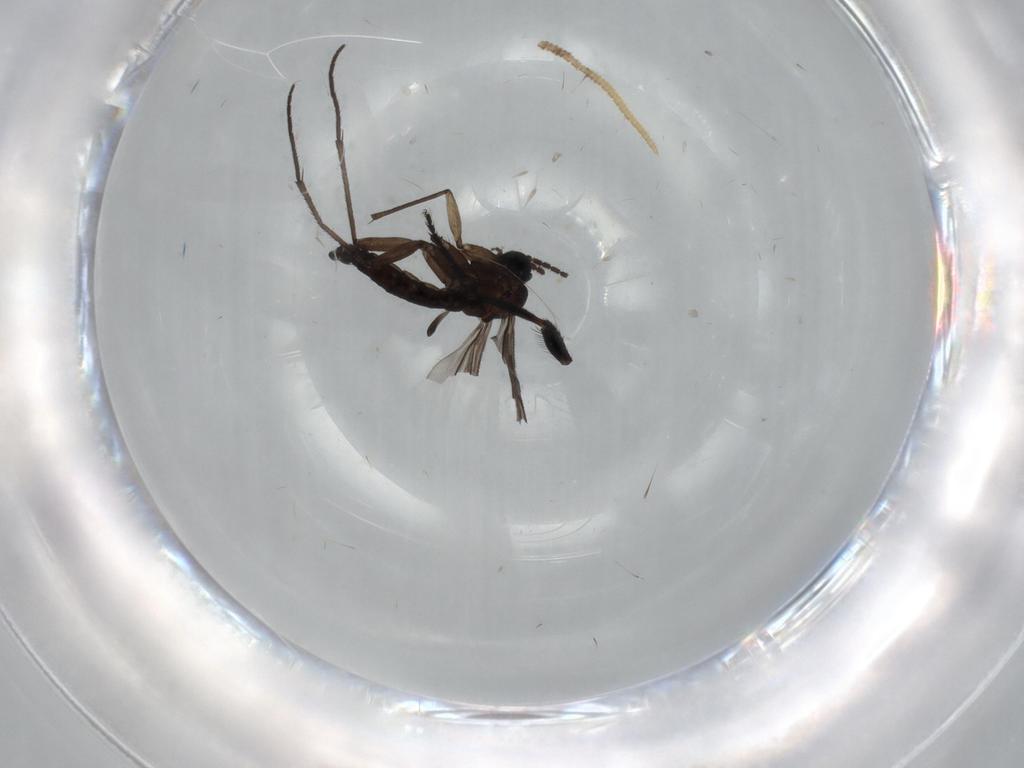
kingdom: Animalia
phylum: Arthropoda
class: Insecta
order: Diptera
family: Milichiidae
